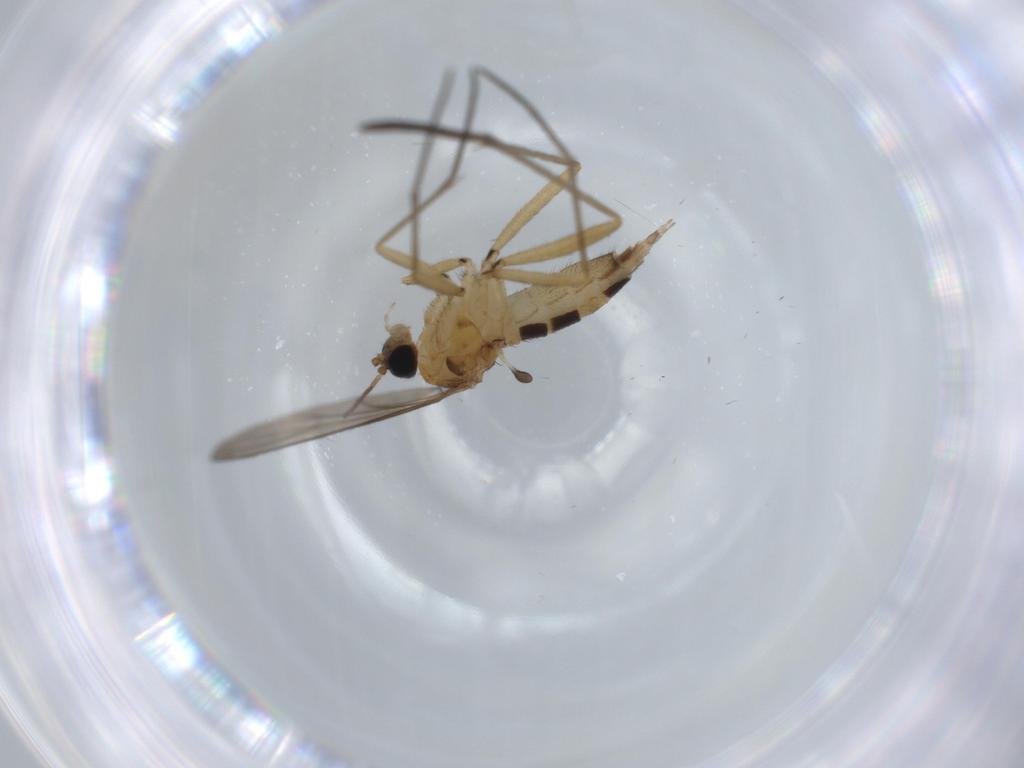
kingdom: Animalia
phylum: Arthropoda
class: Insecta
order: Diptera
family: Sciaridae
